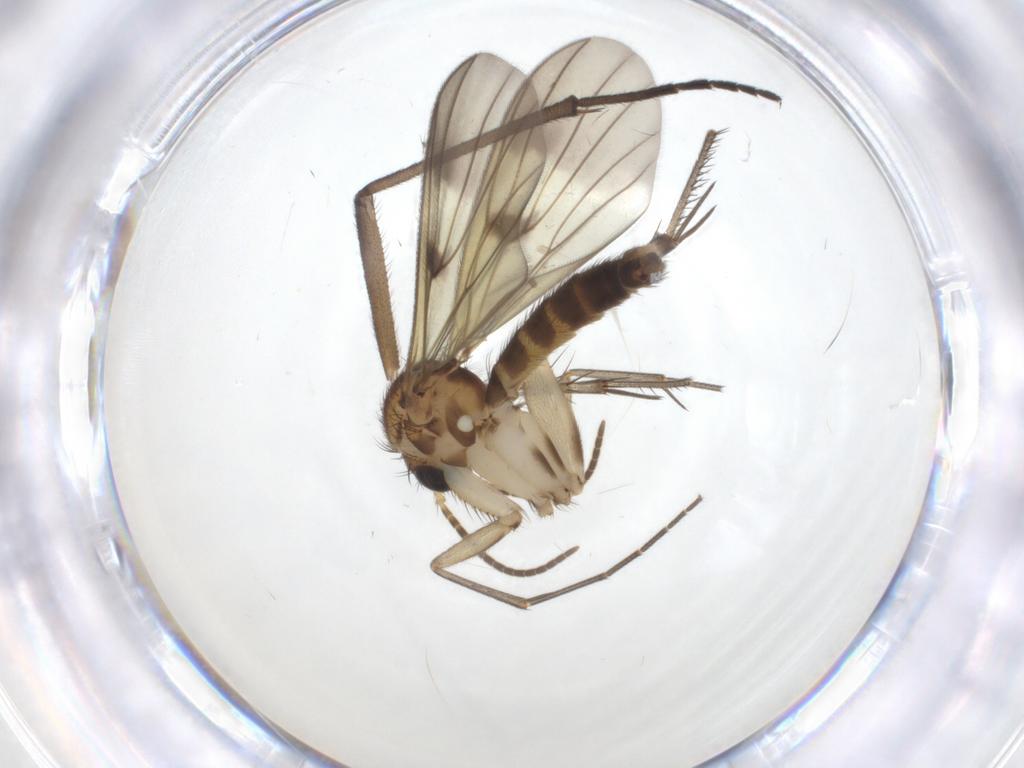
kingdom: Animalia
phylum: Arthropoda
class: Insecta
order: Diptera
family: Sciaridae
